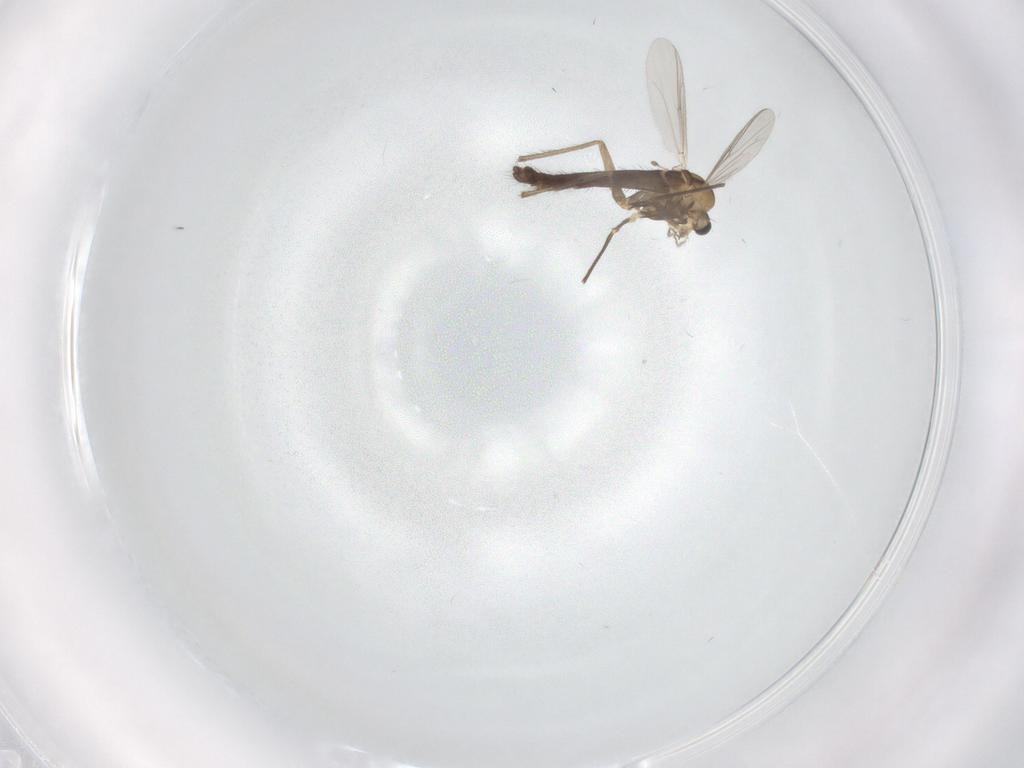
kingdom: Animalia
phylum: Arthropoda
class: Insecta
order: Diptera
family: Chironomidae
